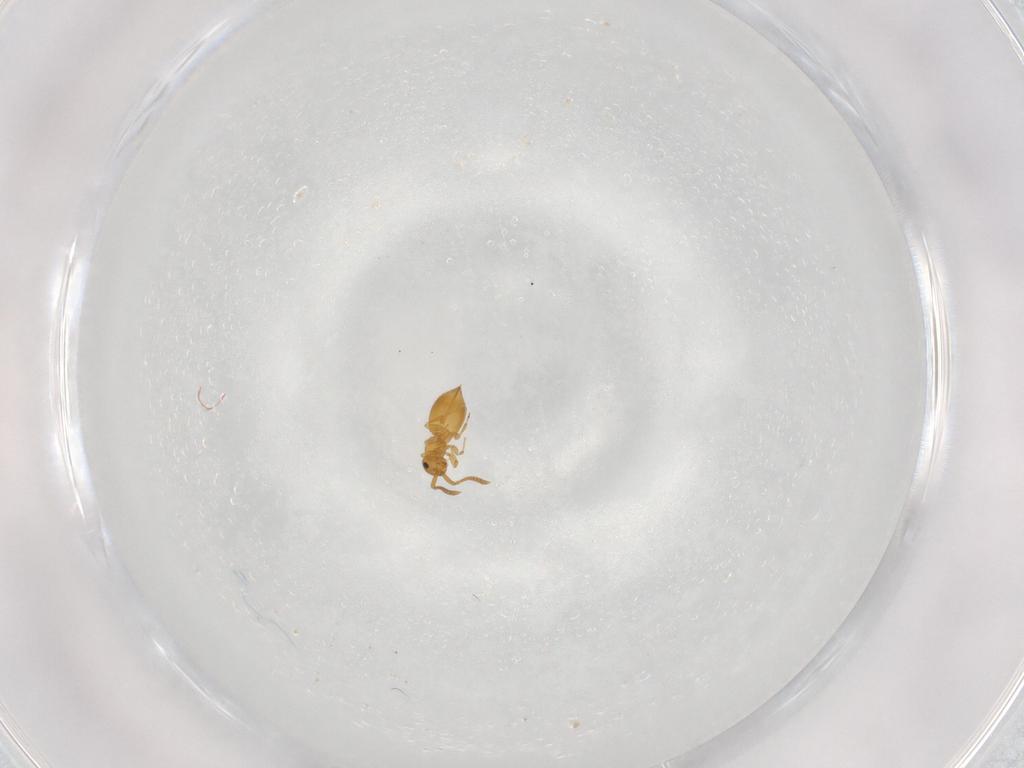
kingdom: Animalia
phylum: Arthropoda
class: Insecta
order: Hymenoptera
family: Megaspilidae
